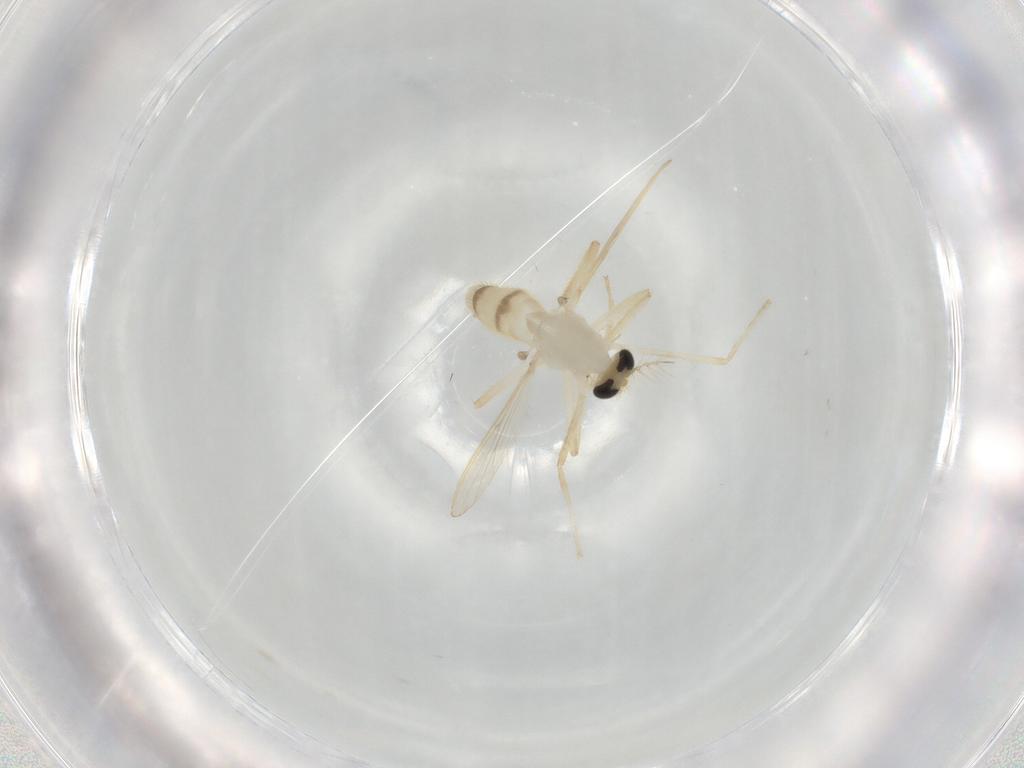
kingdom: Animalia
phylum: Arthropoda
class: Insecta
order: Diptera
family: Chironomidae
